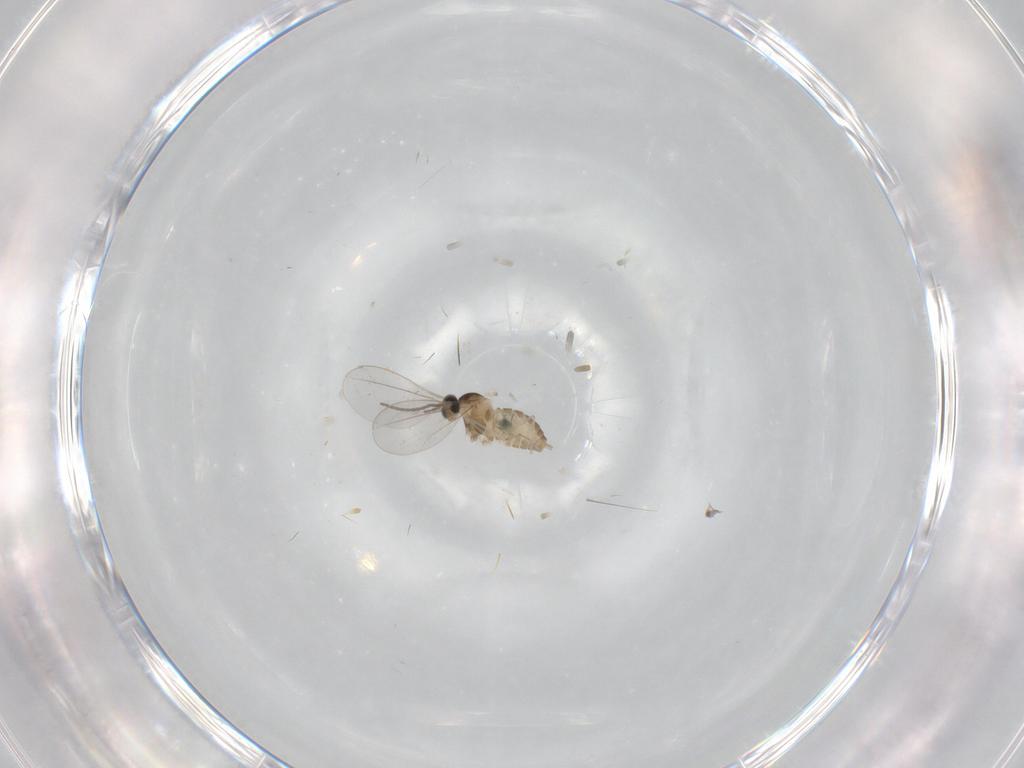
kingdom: Animalia
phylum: Arthropoda
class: Insecta
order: Diptera
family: Cecidomyiidae
